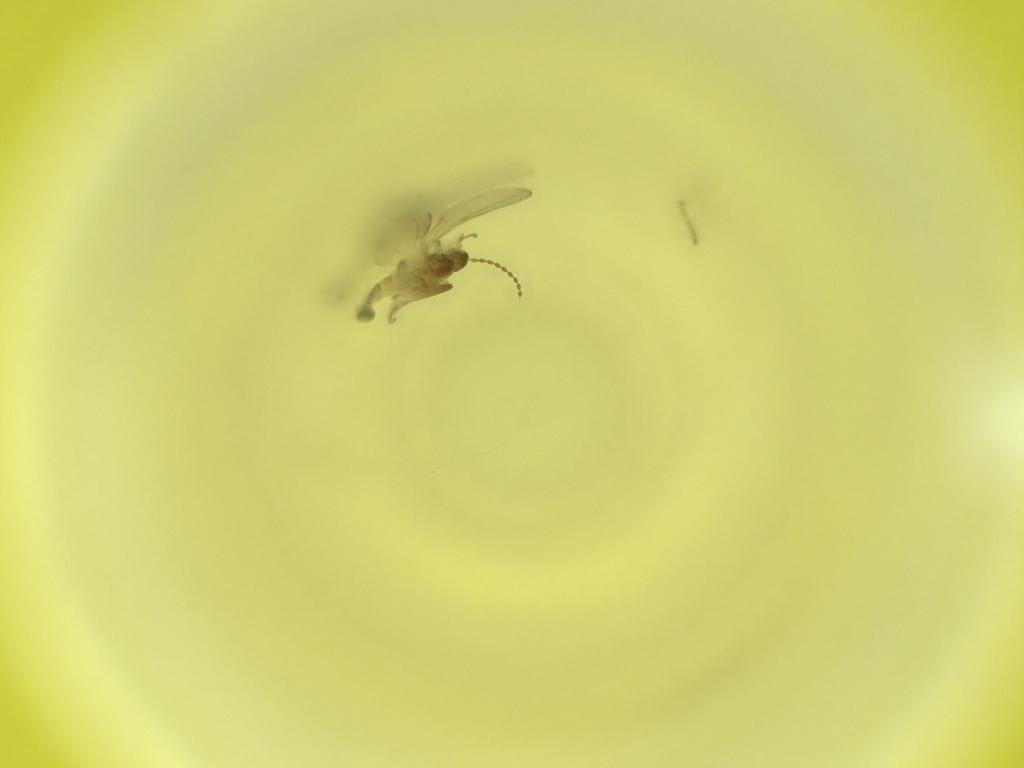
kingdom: Animalia
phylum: Arthropoda
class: Insecta
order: Diptera
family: Cecidomyiidae
